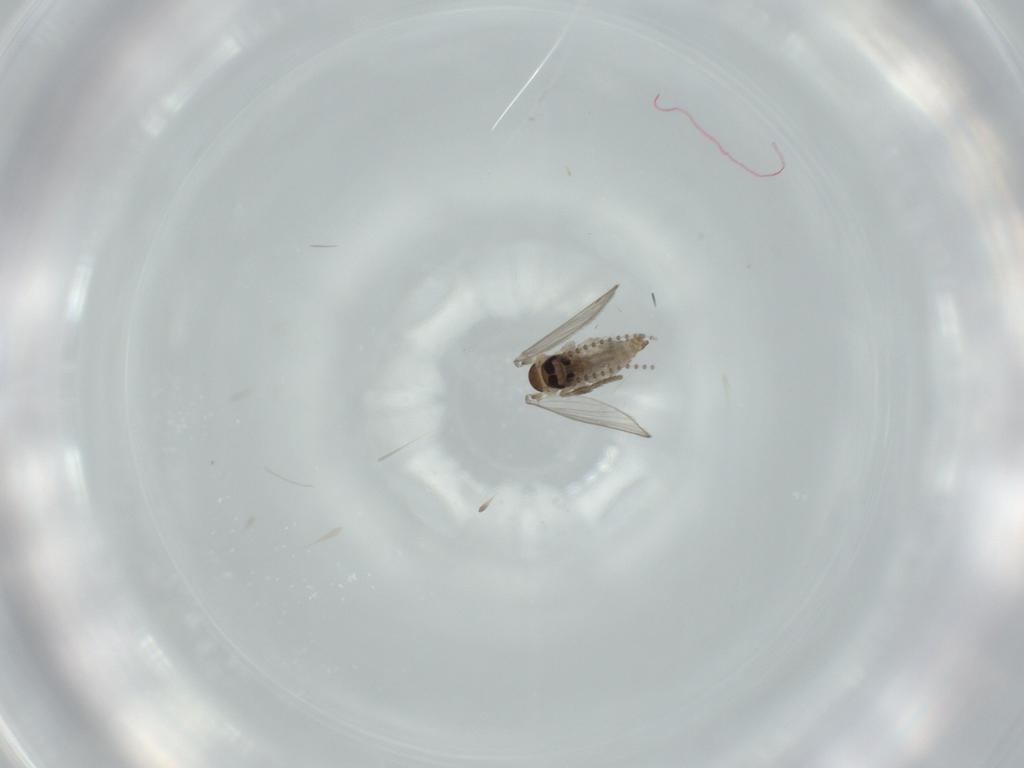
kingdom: Animalia
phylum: Arthropoda
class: Insecta
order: Diptera
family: Psychodidae
